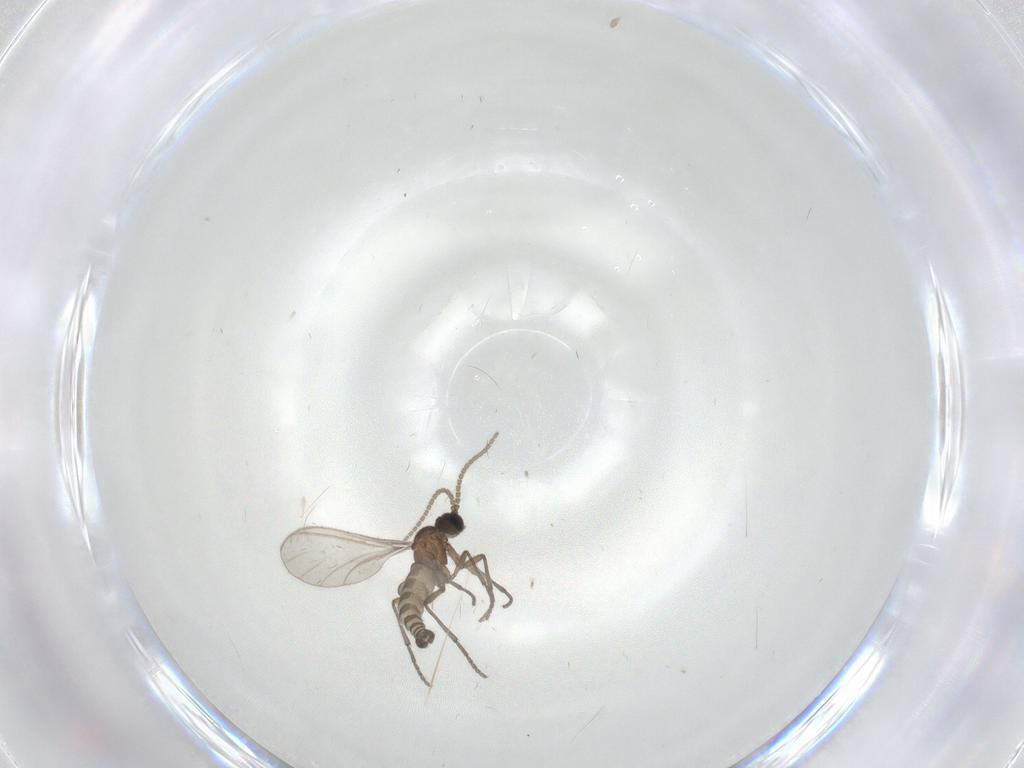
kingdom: Animalia
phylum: Arthropoda
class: Insecta
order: Diptera
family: Sciaridae
